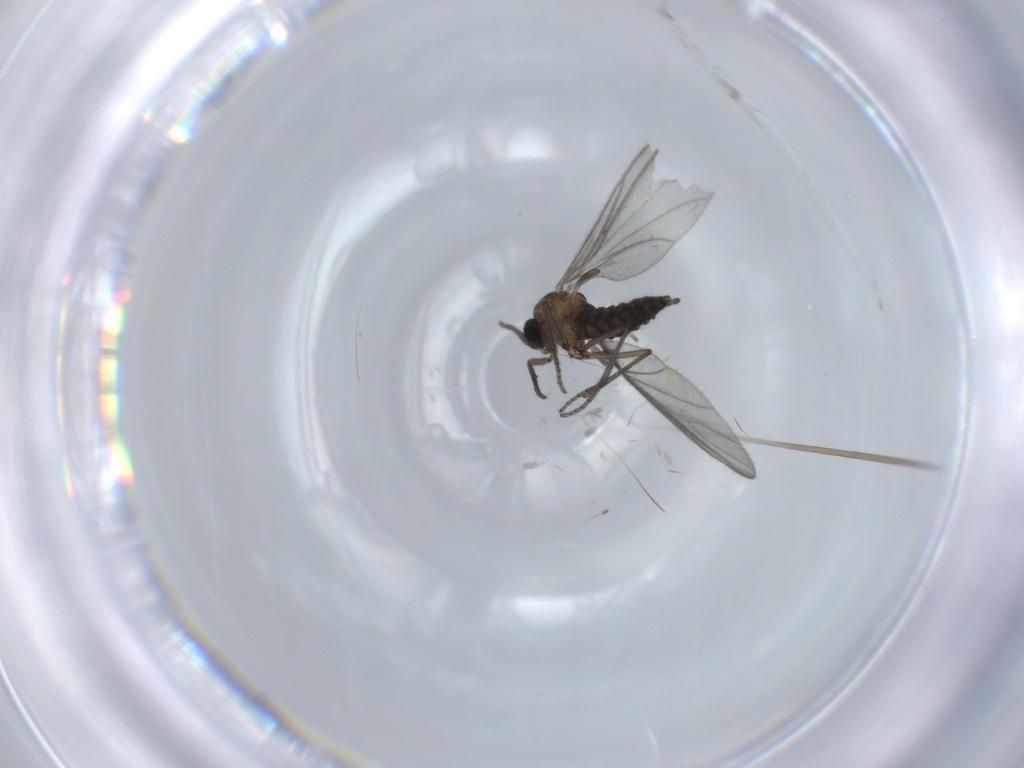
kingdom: Animalia
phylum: Arthropoda
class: Insecta
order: Diptera
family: Sciaridae
